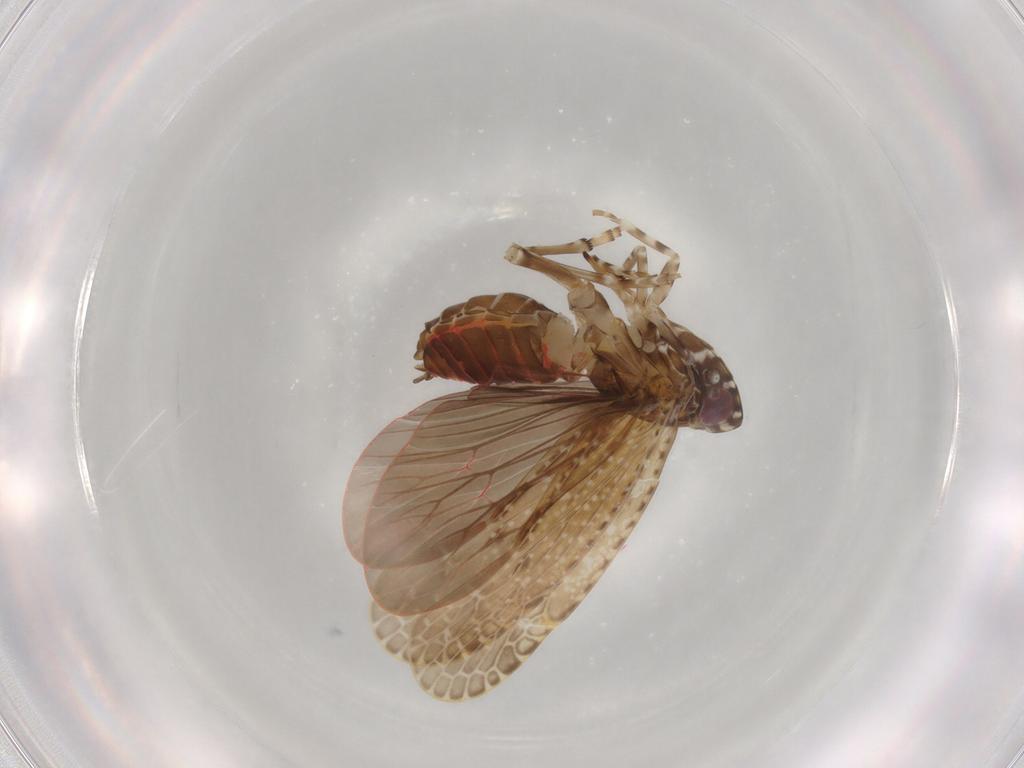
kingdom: Animalia
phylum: Arthropoda
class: Insecta
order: Hemiptera
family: Achilidae
